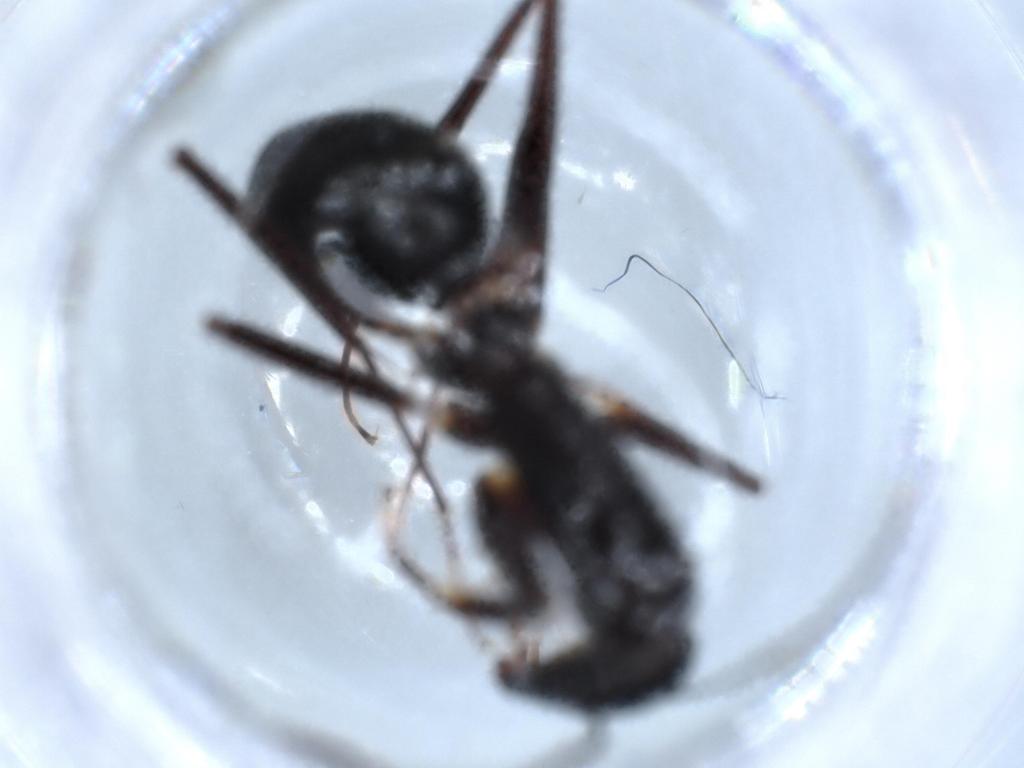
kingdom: Animalia
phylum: Arthropoda
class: Insecta
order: Hymenoptera
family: Formicidae
